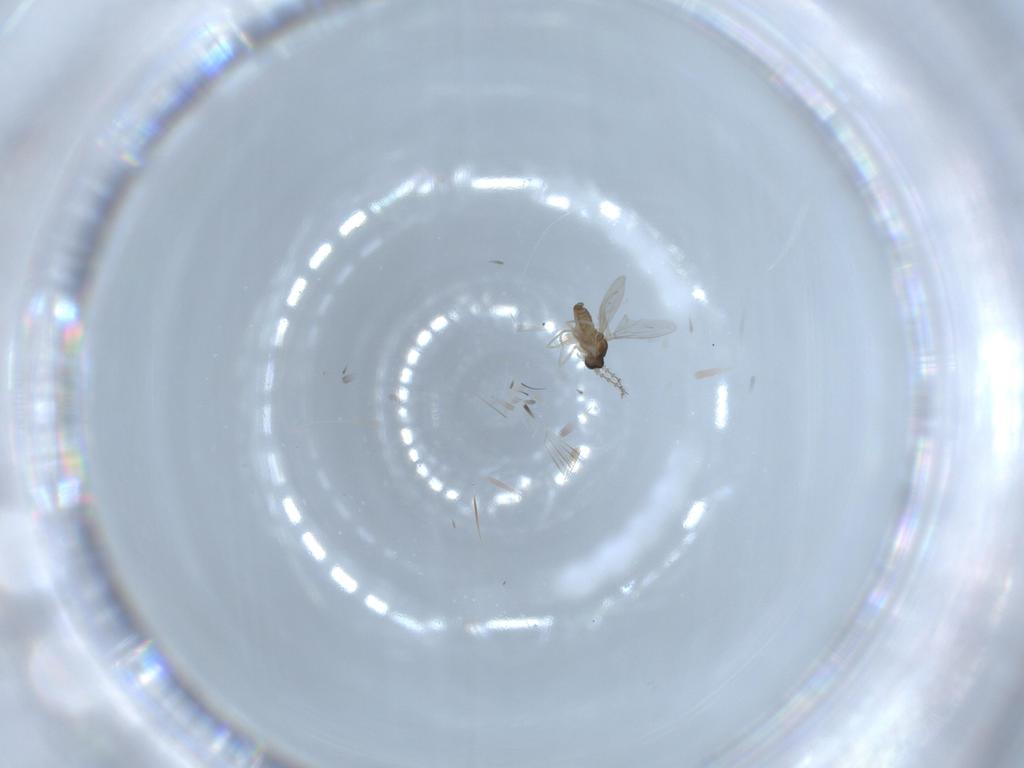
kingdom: Animalia
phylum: Arthropoda
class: Insecta
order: Diptera
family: Cecidomyiidae
